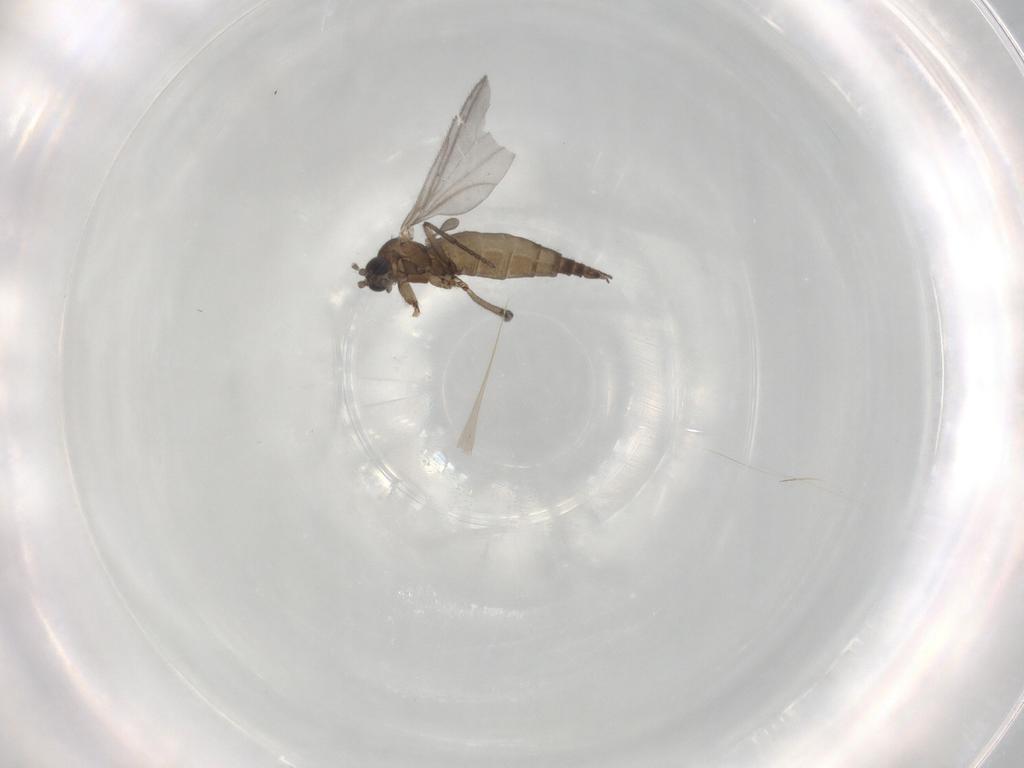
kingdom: Animalia
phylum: Arthropoda
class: Insecta
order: Diptera
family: Sciaridae
